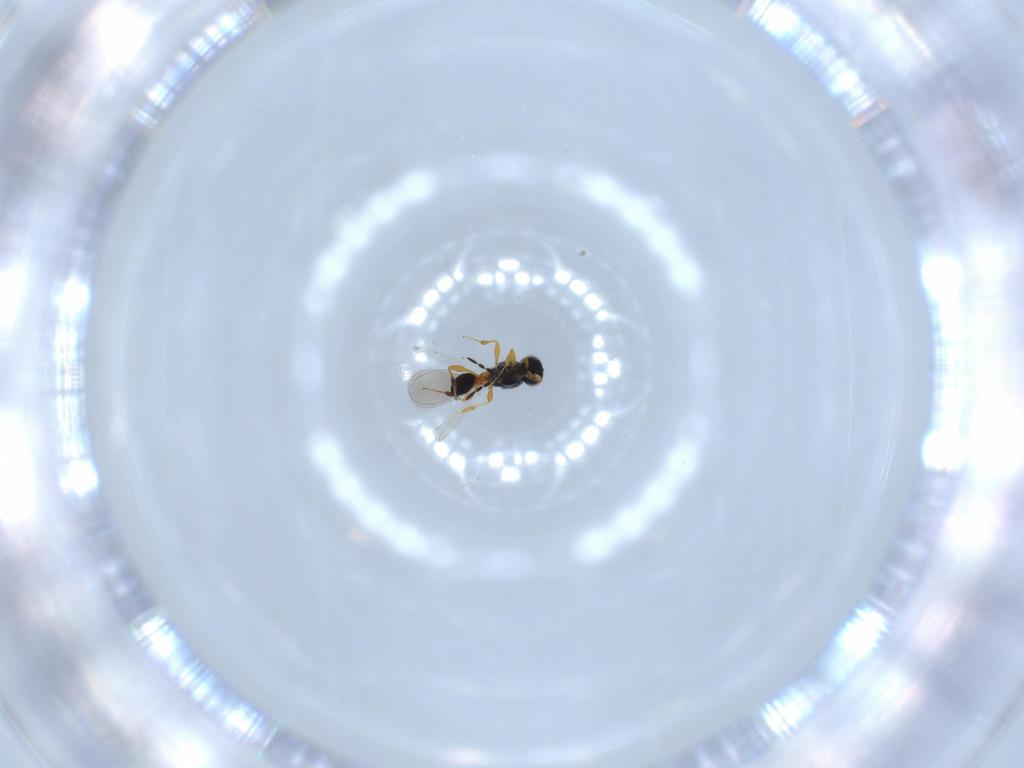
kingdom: Animalia
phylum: Arthropoda
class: Insecta
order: Hymenoptera
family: Platygastridae
